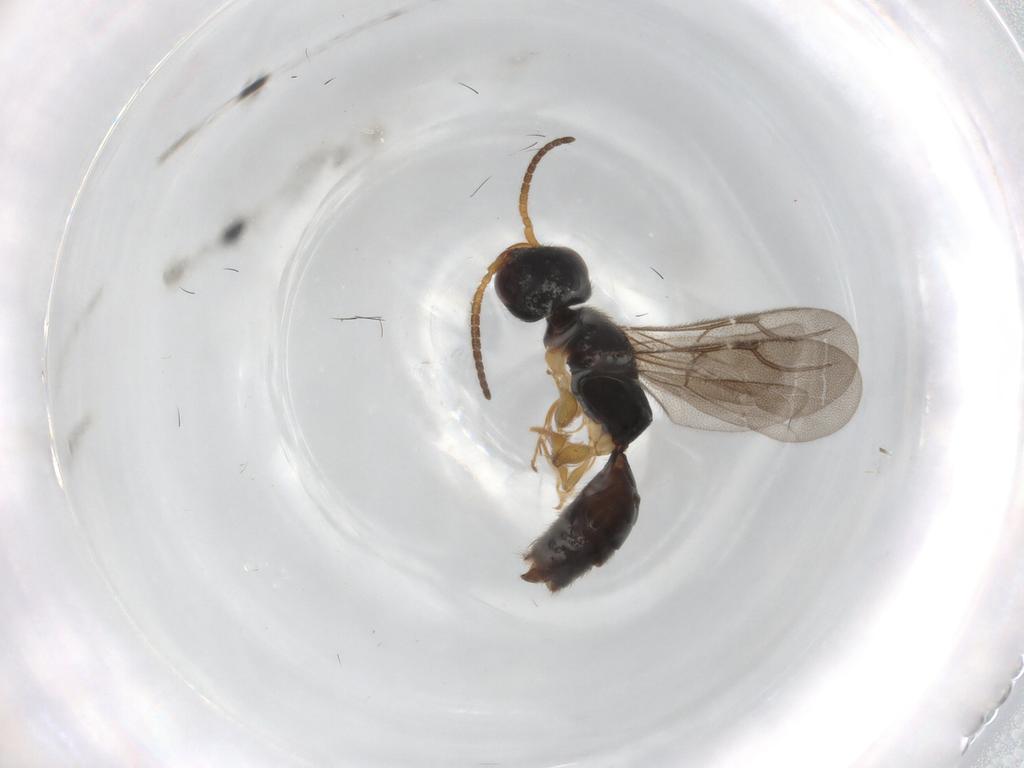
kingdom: Animalia
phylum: Arthropoda
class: Insecta
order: Hymenoptera
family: Bethylidae
